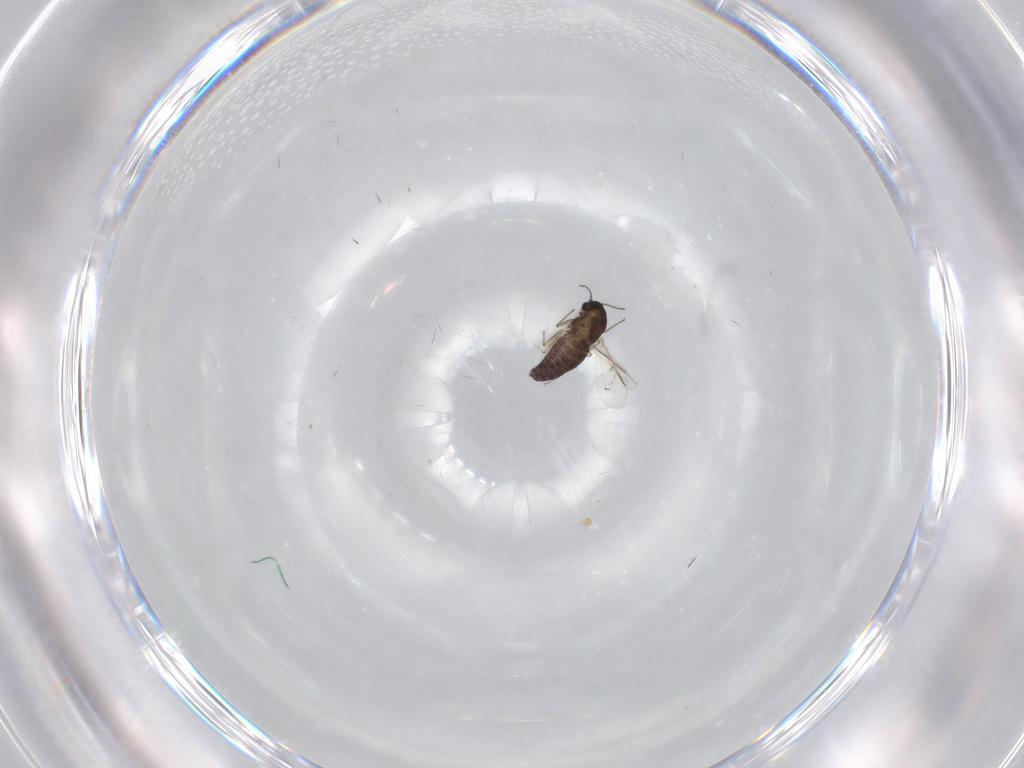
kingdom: Animalia
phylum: Arthropoda
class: Insecta
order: Diptera
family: Chironomidae
